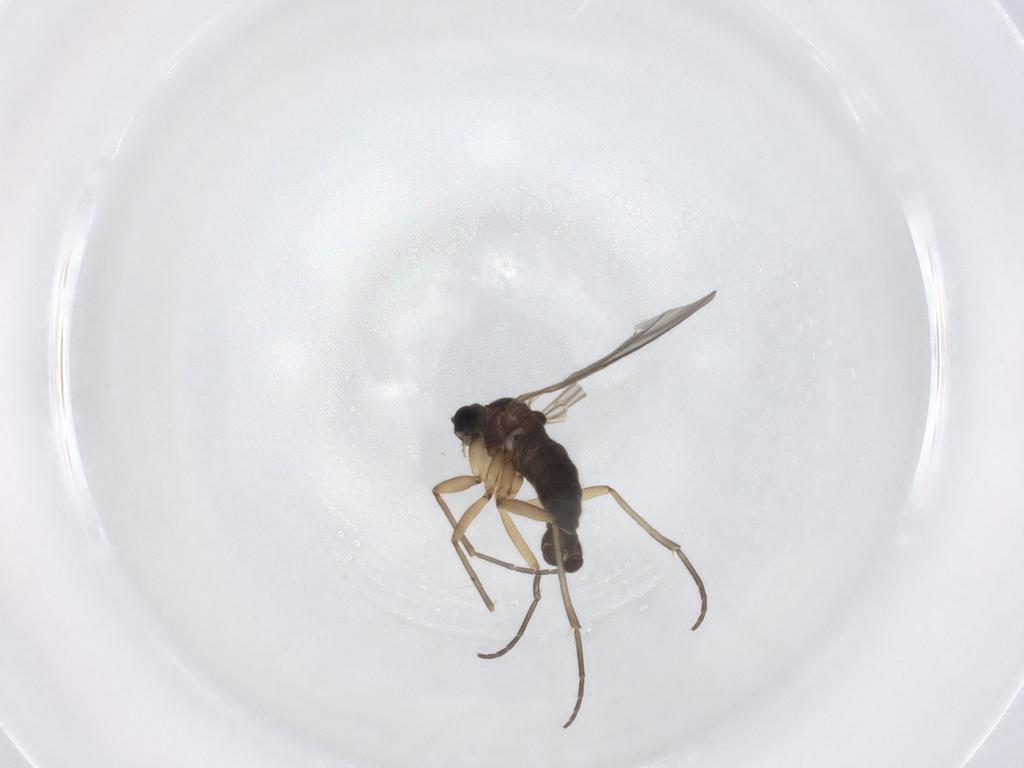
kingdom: Animalia
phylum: Arthropoda
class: Insecta
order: Diptera
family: Sciaridae
